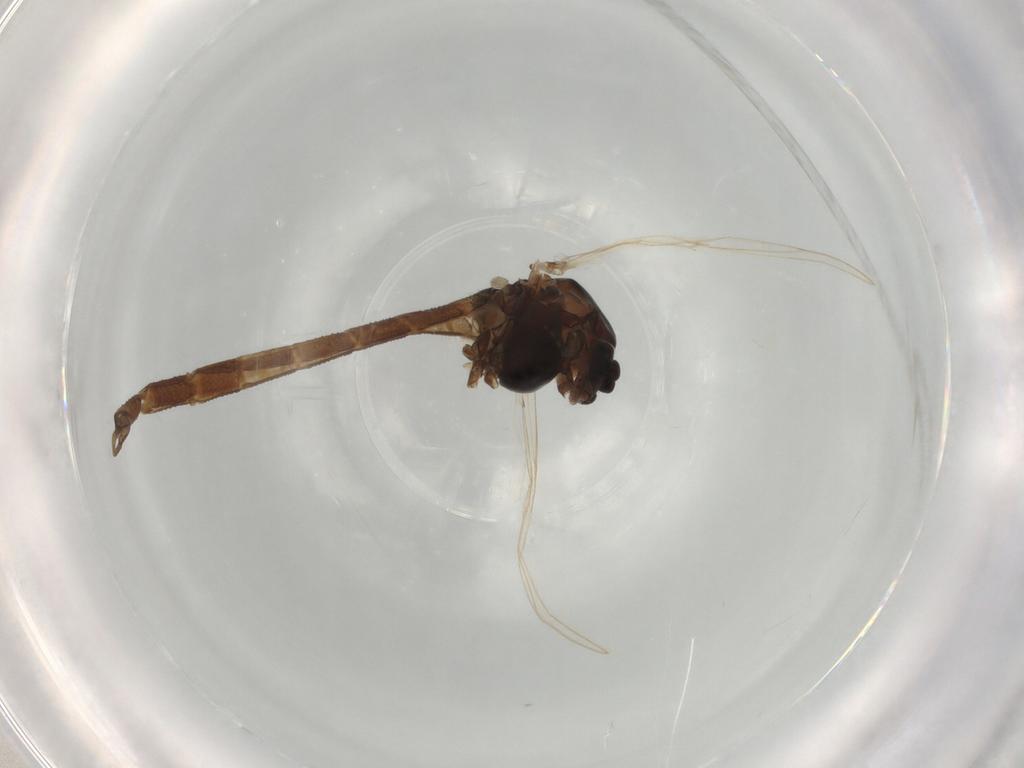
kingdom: Animalia
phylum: Arthropoda
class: Insecta
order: Diptera
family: Chironomidae
